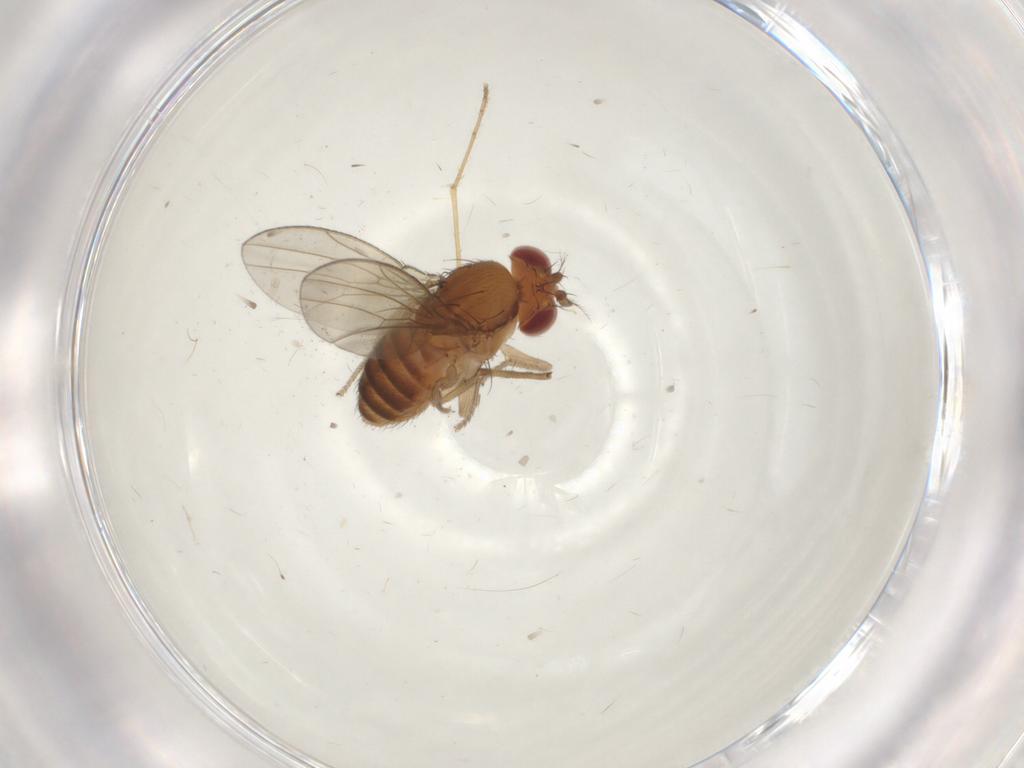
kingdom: Animalia
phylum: Arthropoda
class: Insecta
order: Diptera
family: Drosophilidae
